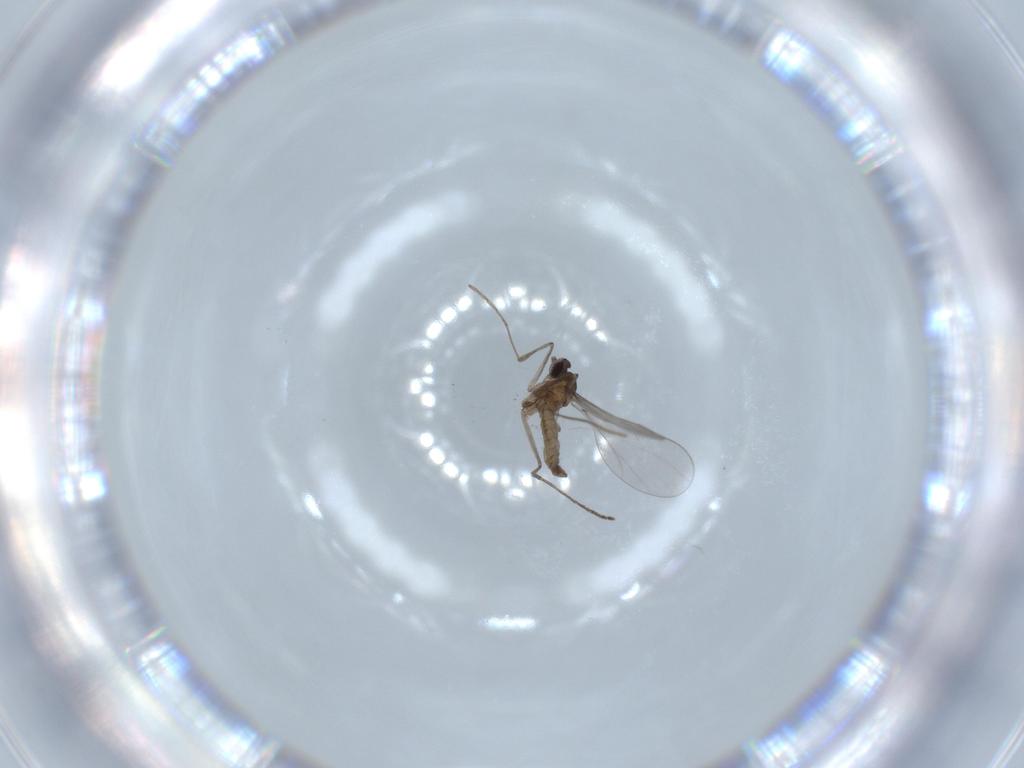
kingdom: Animalia
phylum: Arthropoda
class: Insecta
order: Diptera
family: Cecidomyiidae
